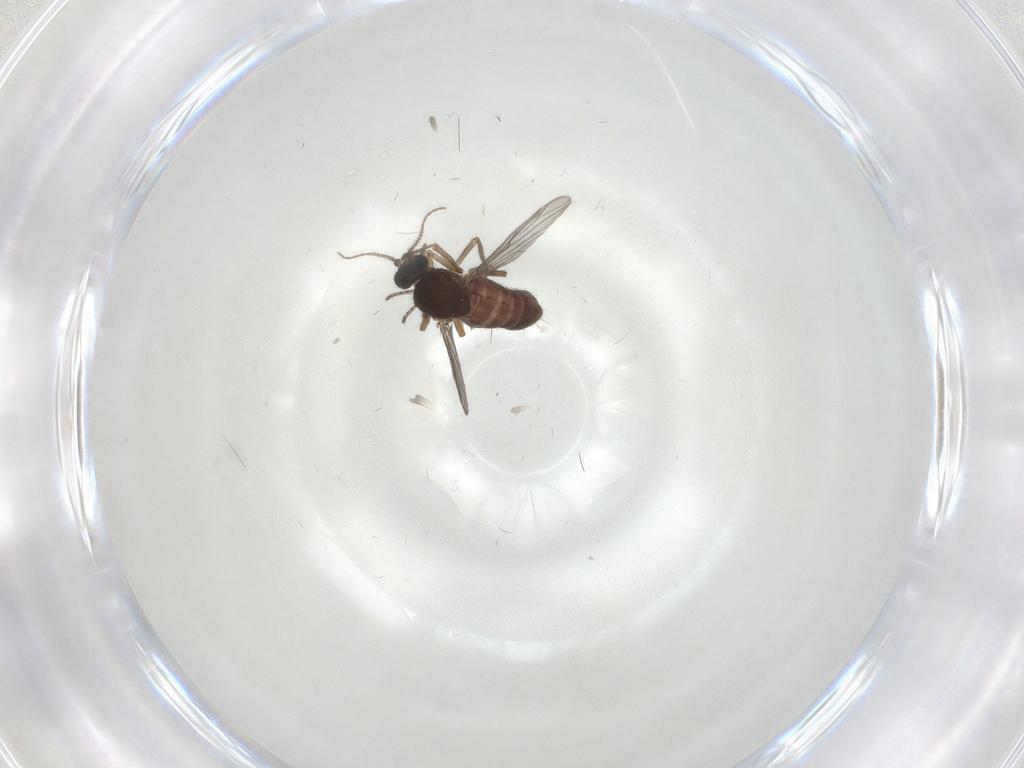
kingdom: Animalia
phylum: Arthropoda
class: Insecta
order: Diptera
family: Ceratopogonidae
